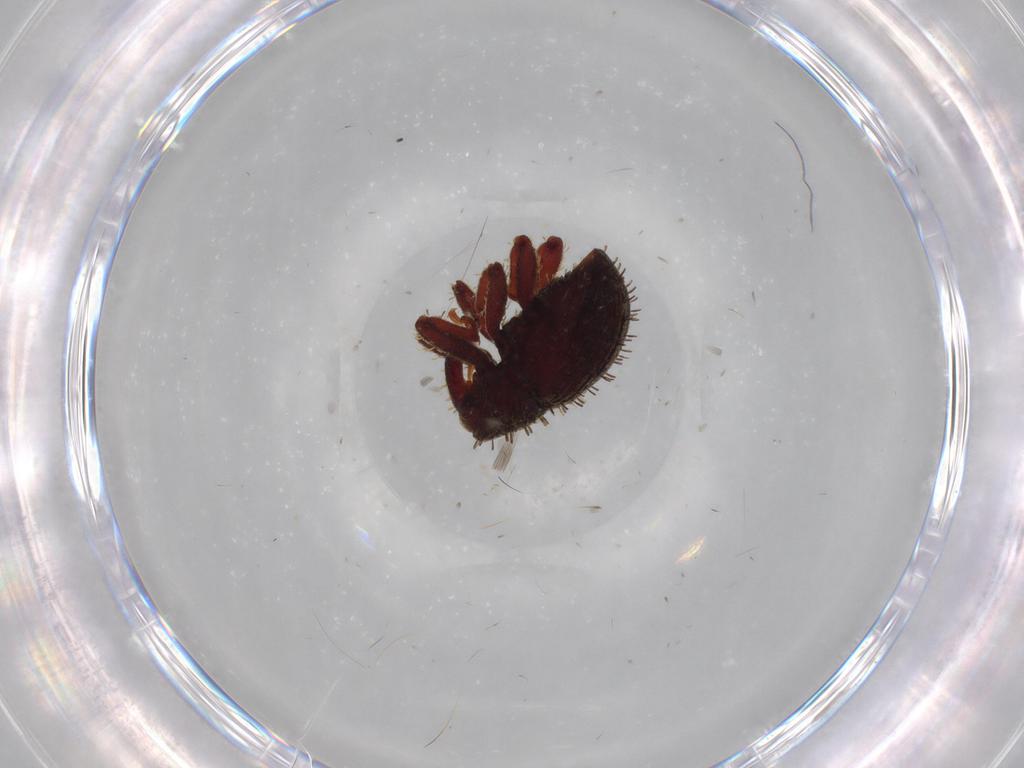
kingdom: Animalia
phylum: Arthropoda
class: Insecta
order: Coleoptera
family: Curculionidae
